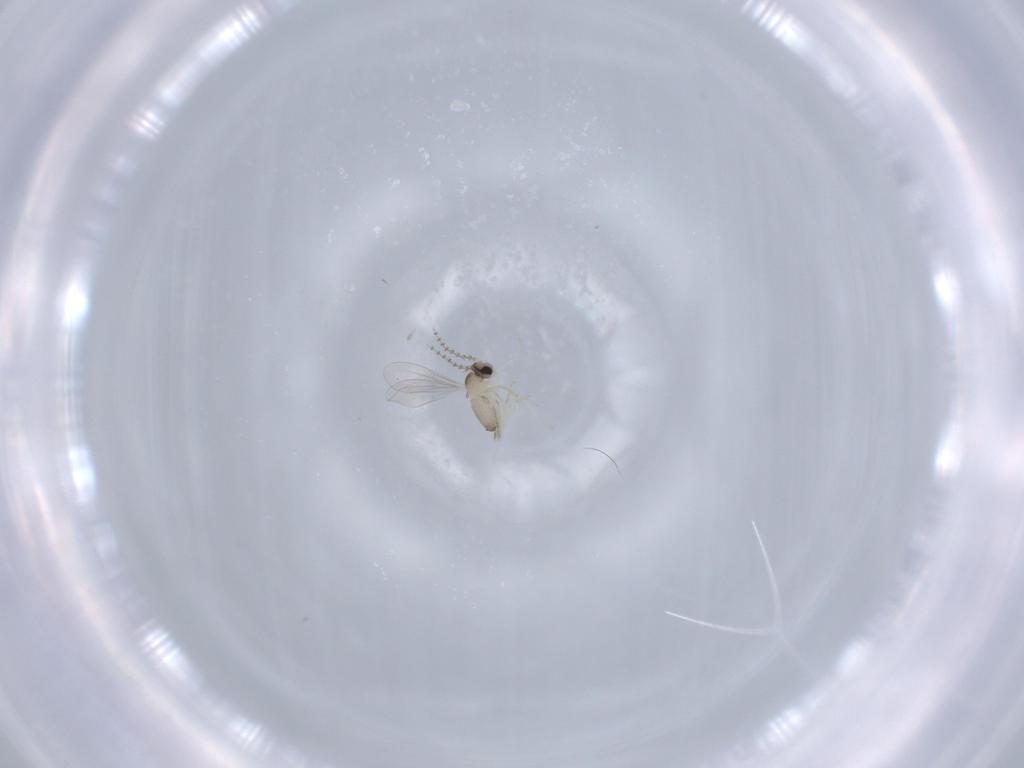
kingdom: Animalia
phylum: Arthropoda
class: Insecta
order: Diptera
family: Cecidomyiidae
